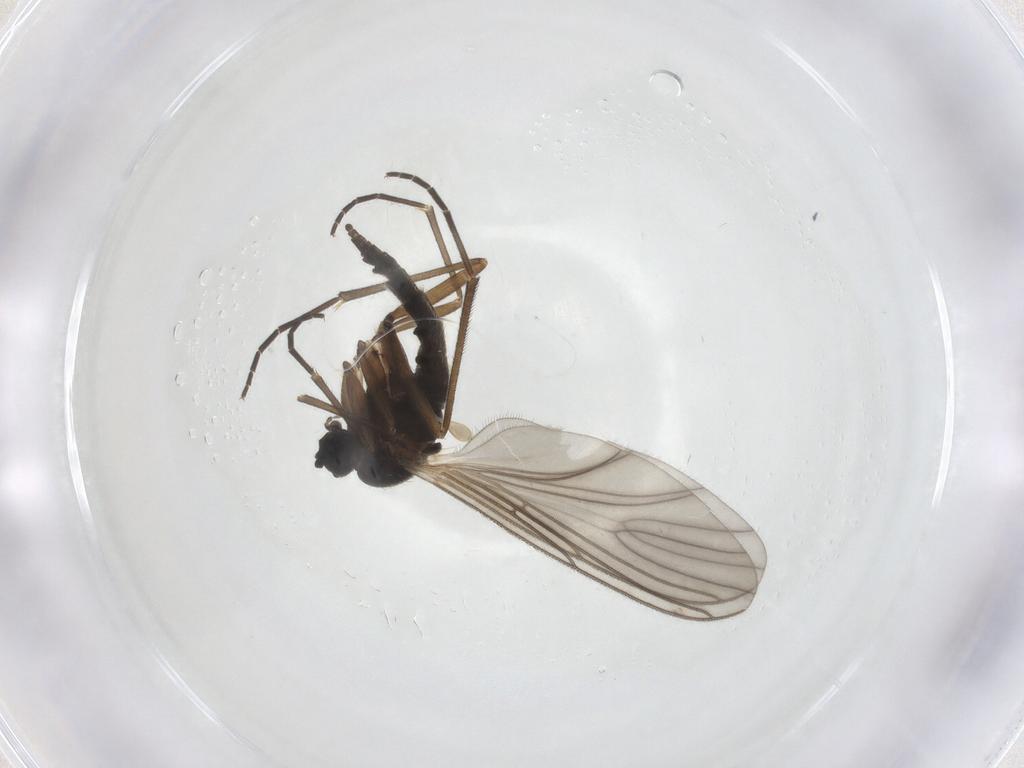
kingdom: Animalia
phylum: Arthropoda
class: Insecta
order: Diptera
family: Sciaridae
